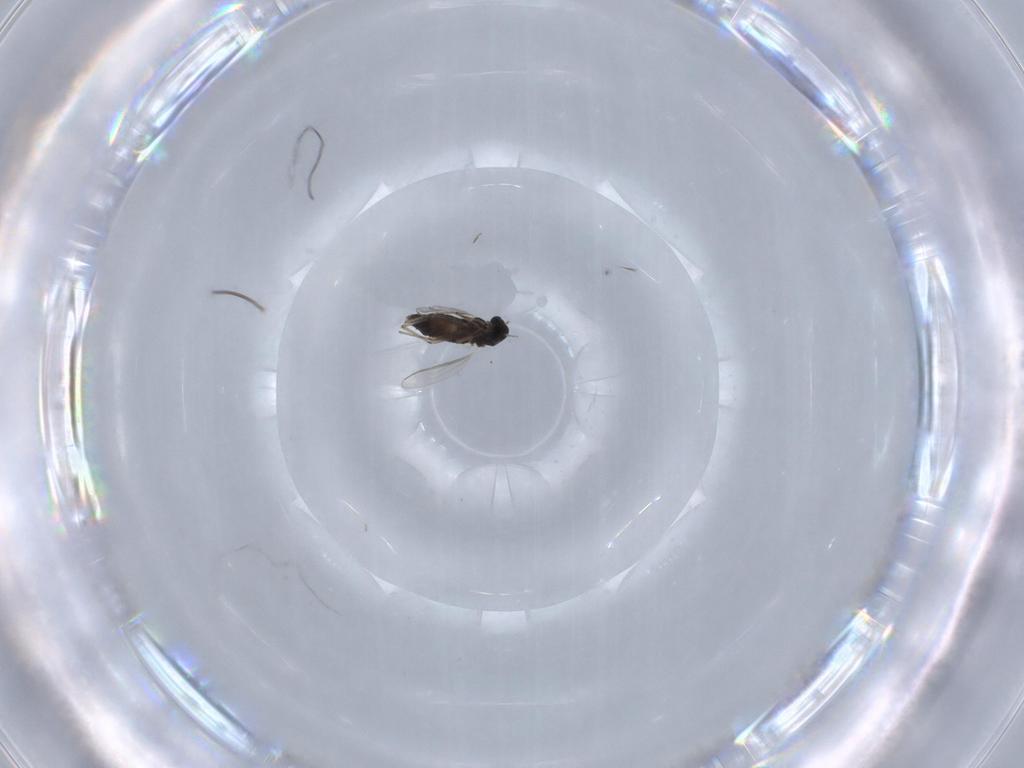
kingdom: Animalia
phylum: Arthropoda
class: Insecta
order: Diptera
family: Chironomidae
